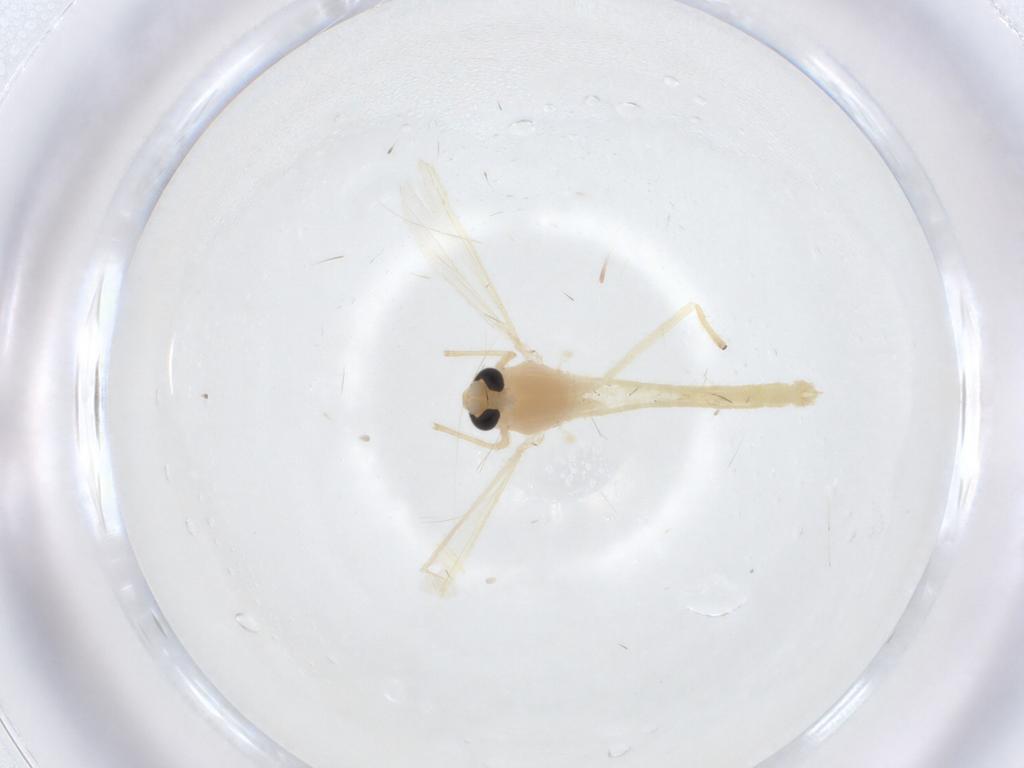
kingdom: Animalia
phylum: Arthropoda
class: Insecta
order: Diptera
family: Chironomidae
